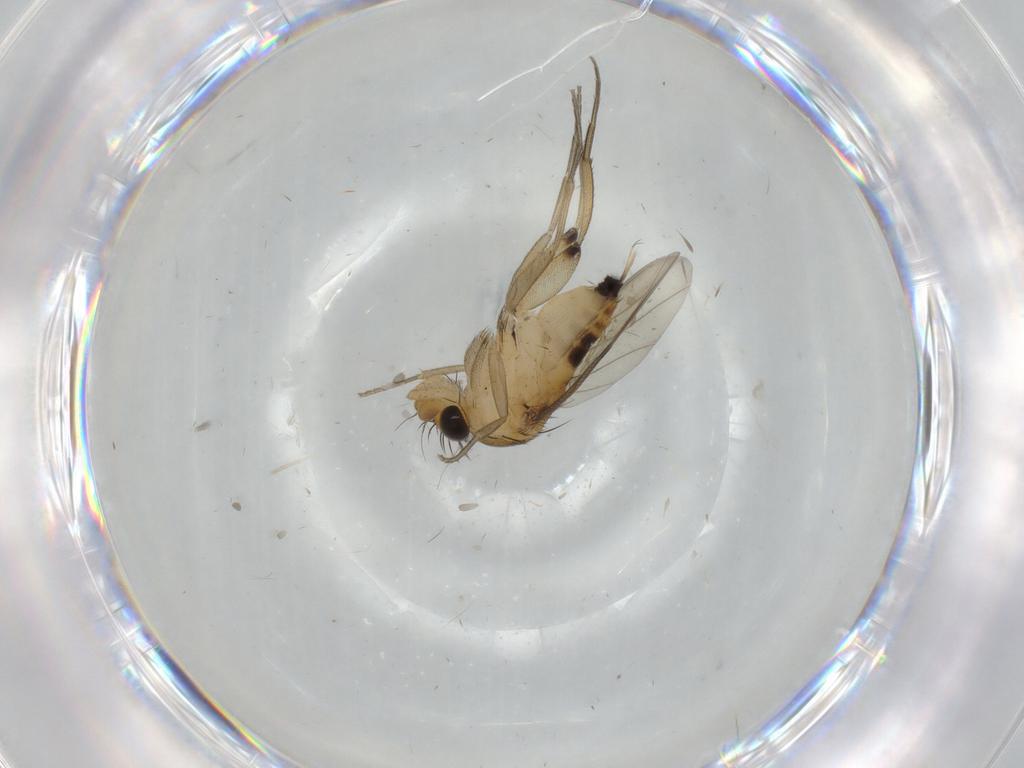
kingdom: Animalia
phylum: Arthropoda
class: Insecta
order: Diptera
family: Phoridae
